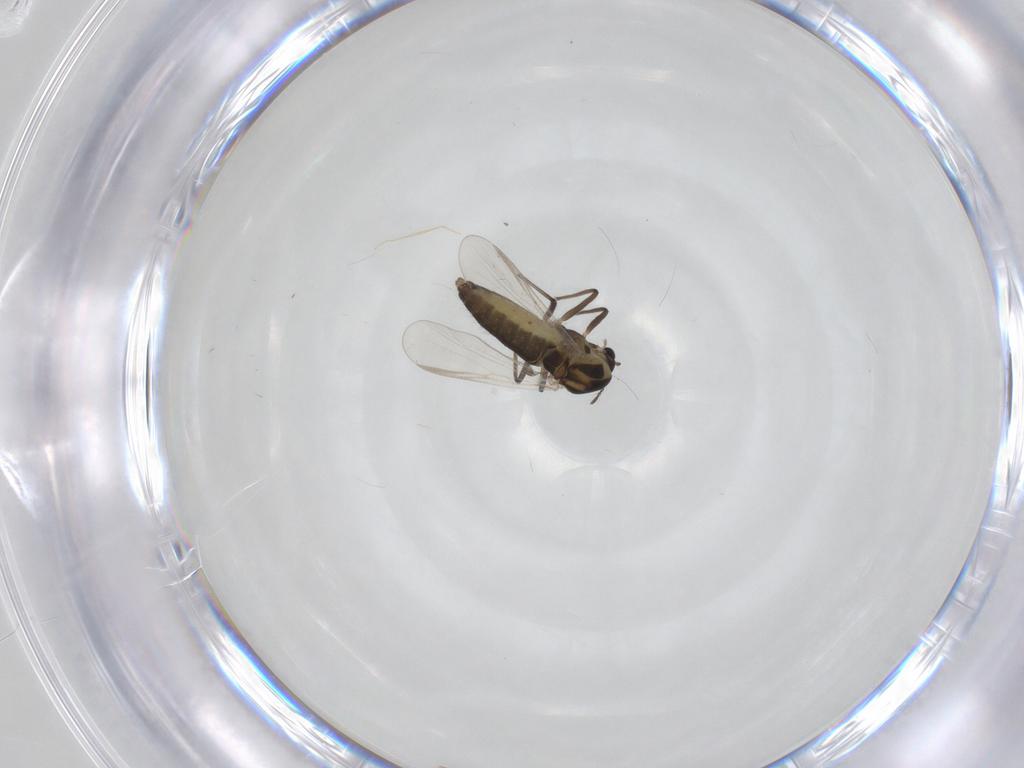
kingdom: Animalia
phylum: Arthropoda
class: Insecta
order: Diptera
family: Chironomidae
